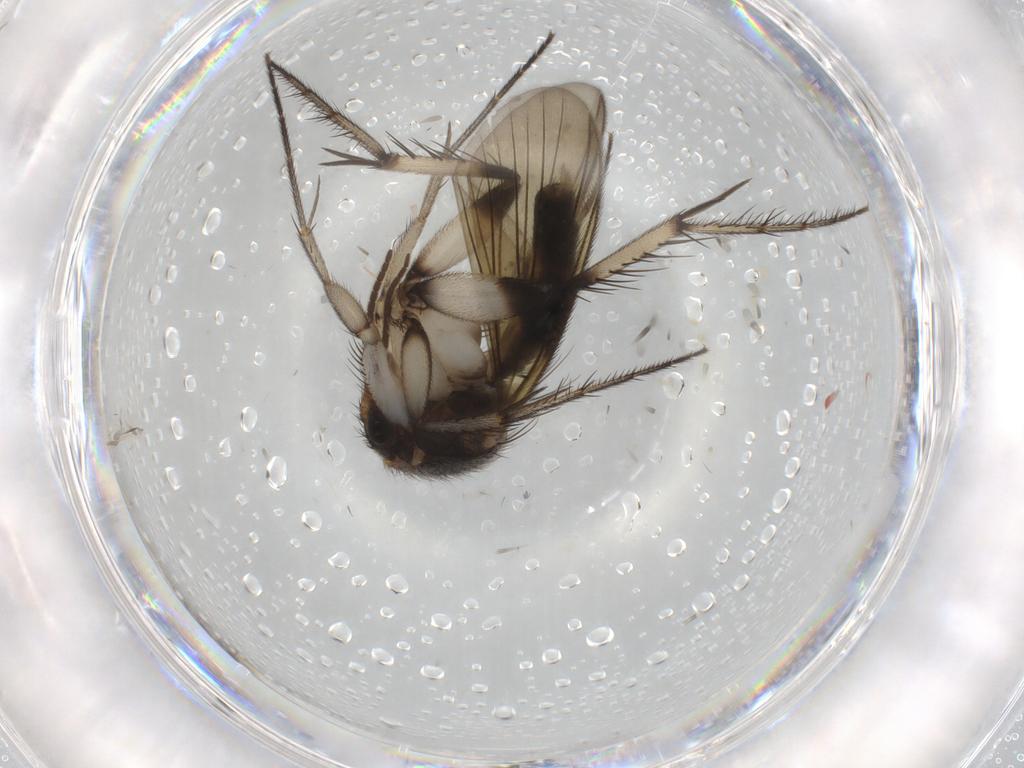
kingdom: Animalia
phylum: Arthropoda
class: Insecta
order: Diptera
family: Mycetophilidae
